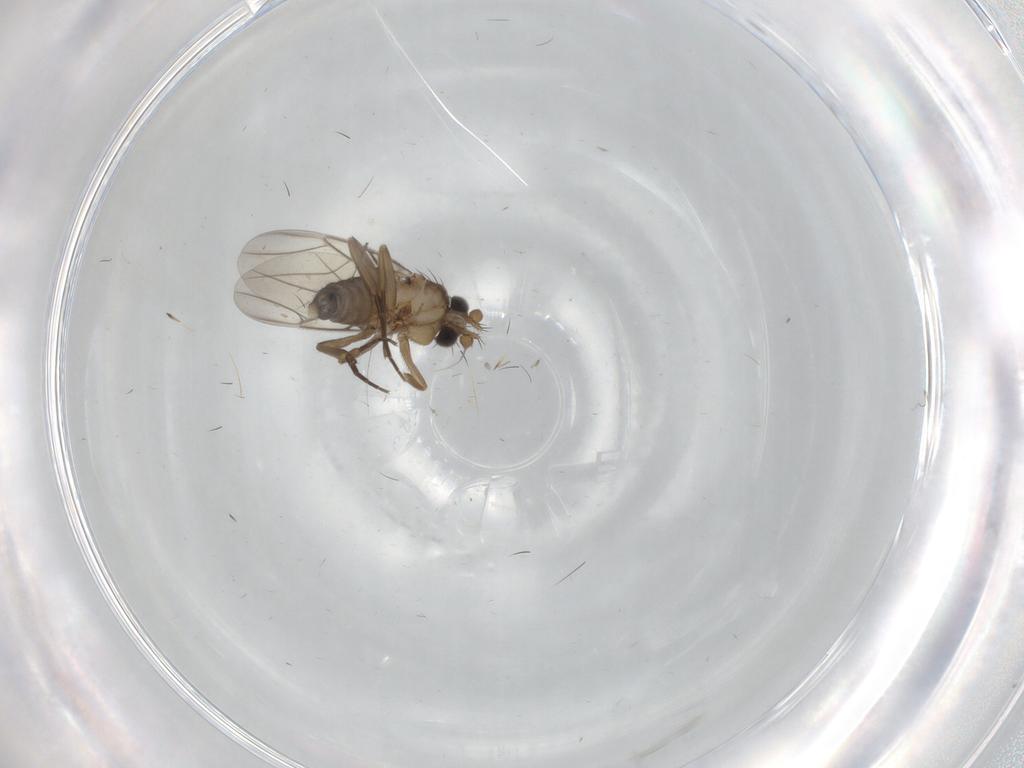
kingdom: Animalia
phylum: Arthropoda
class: Insecta
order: Diptera
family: Phoridae
